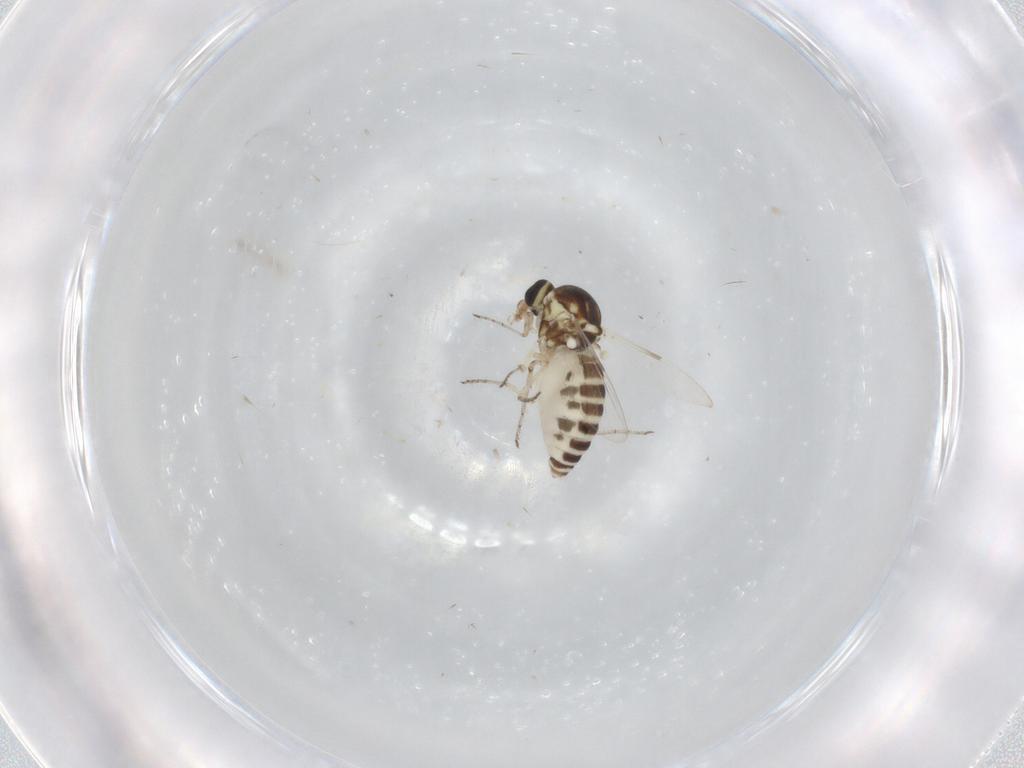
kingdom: Animalia
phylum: Arthropoda
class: Insecta
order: Diptera
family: Ceratopogonidae
